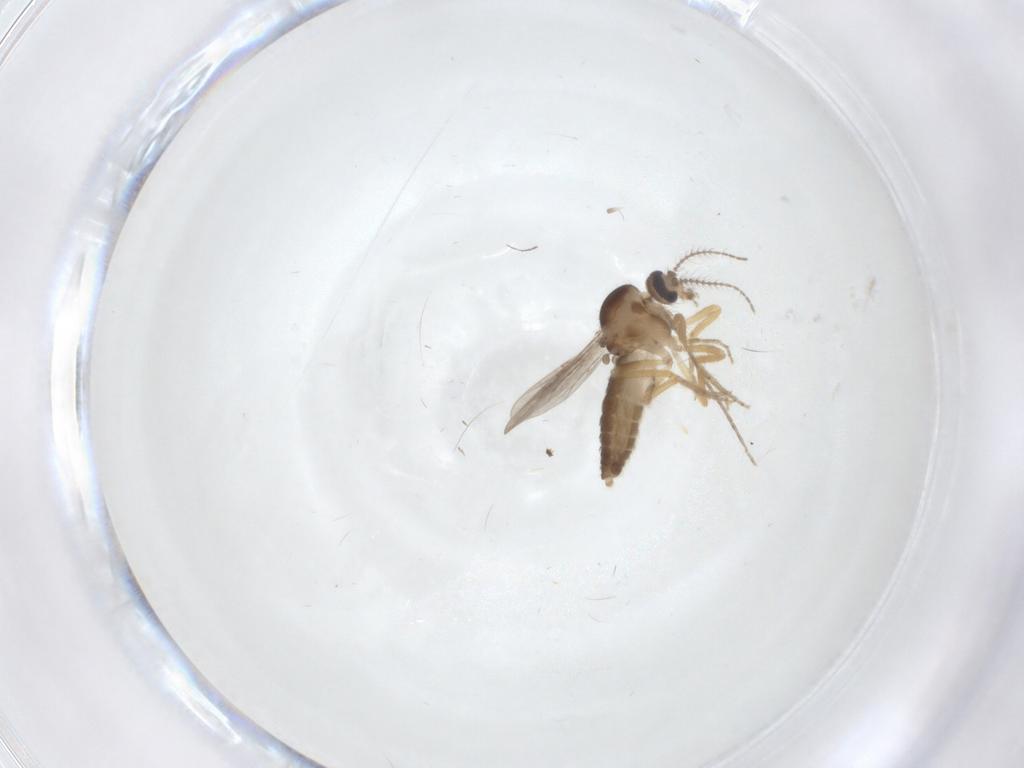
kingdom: Animalia
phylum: Arthropoda
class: Insecta
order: Diptera
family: Ceratopogonidae
